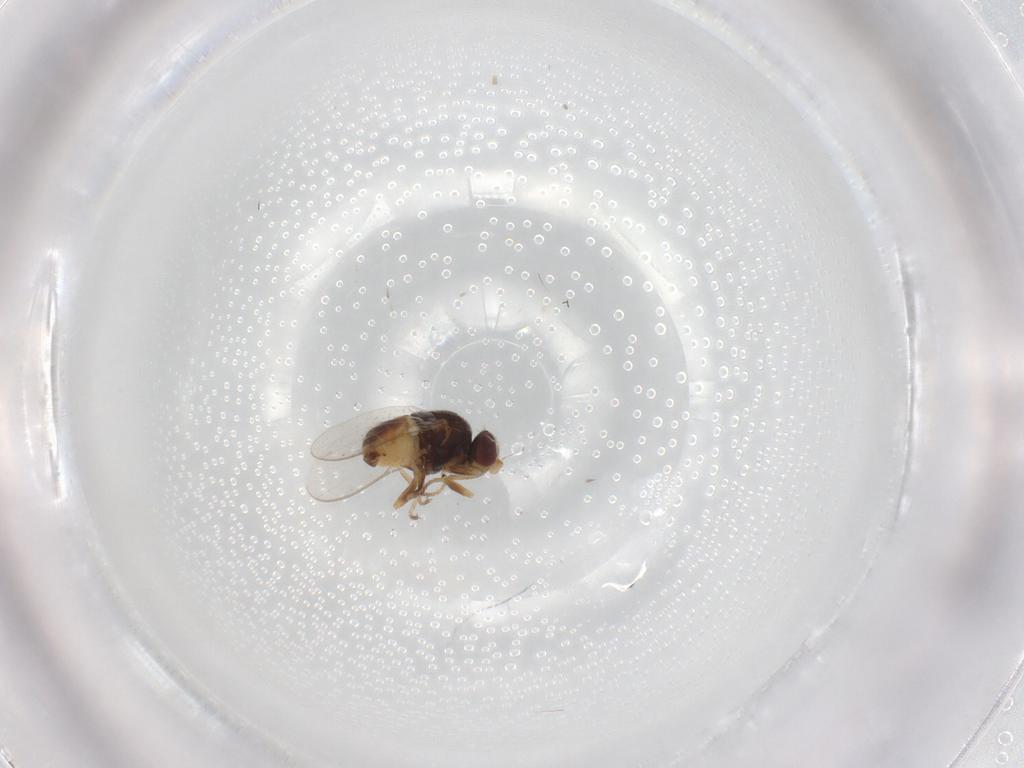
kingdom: Animalia
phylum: Arthropoda
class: Insecta
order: Diptera
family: Chloropidae
